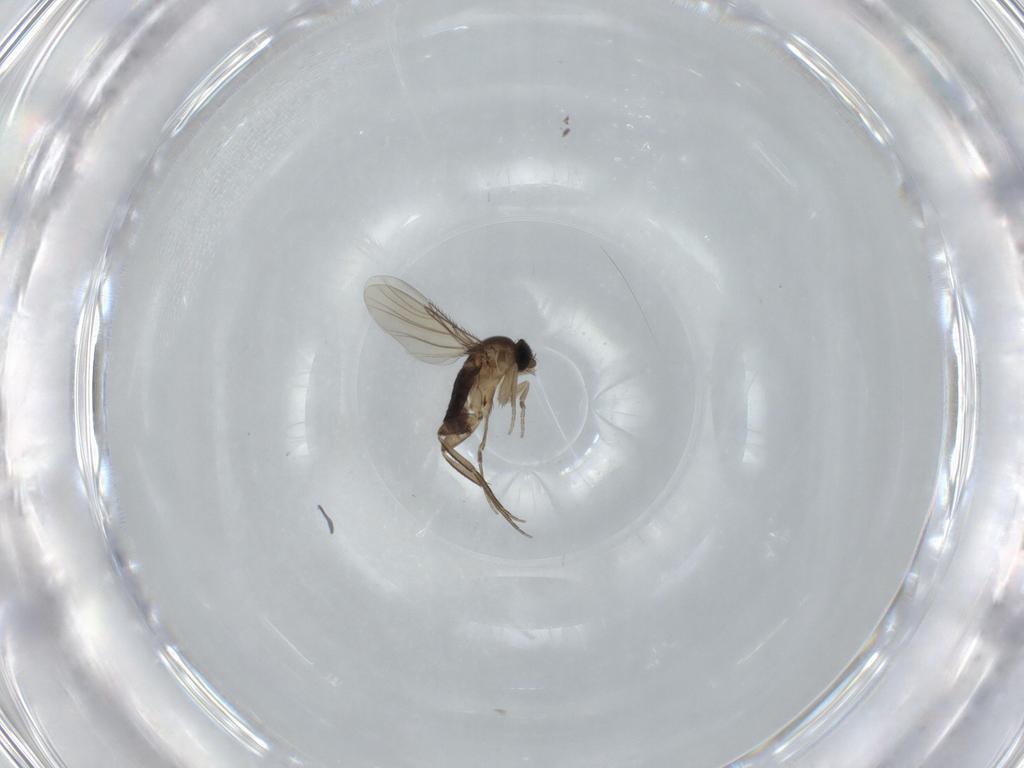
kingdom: Animalia
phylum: Arthropoda
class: Insecta
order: Diptera
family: Phoridae
